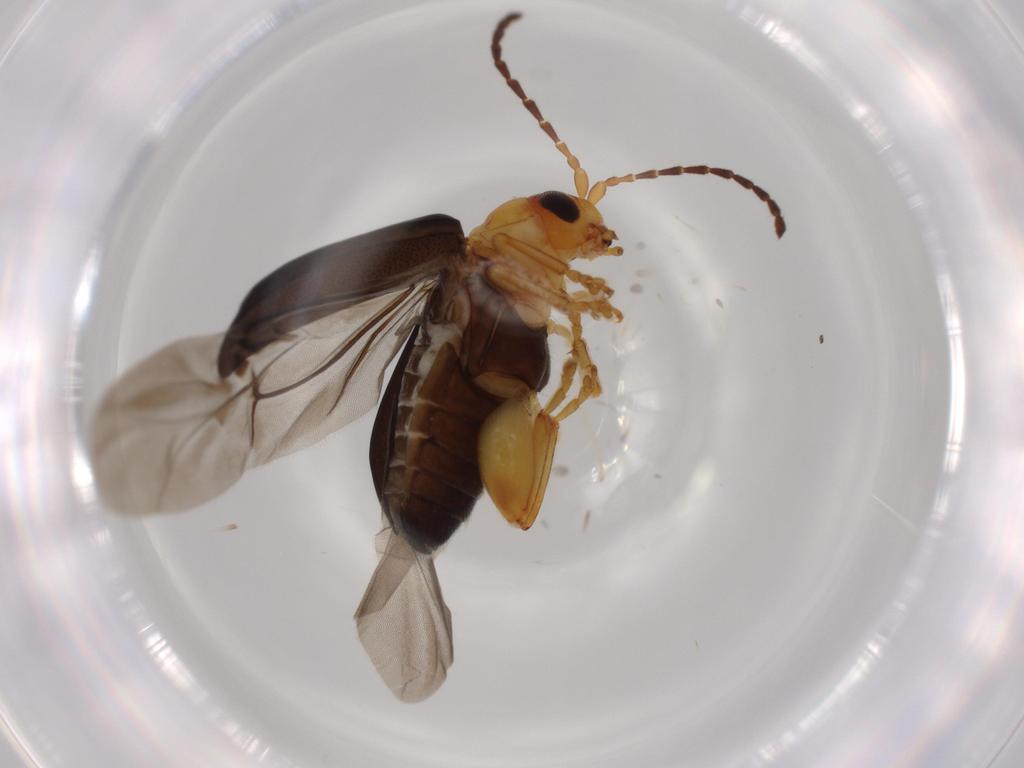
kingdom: Animalia
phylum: Arthropoda
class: Insecta
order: Coleoptera
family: Chrysomelidae
